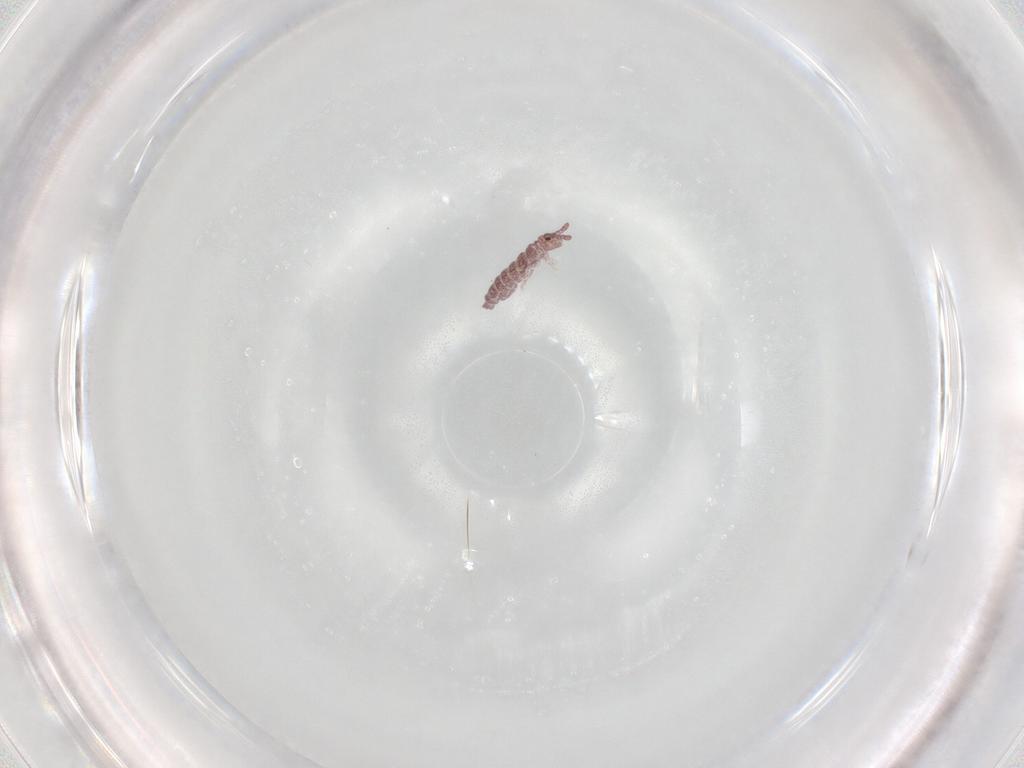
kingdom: Animalia
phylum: Arthropoda
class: Collembola
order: Poduromorpha
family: Hypogastruridae
